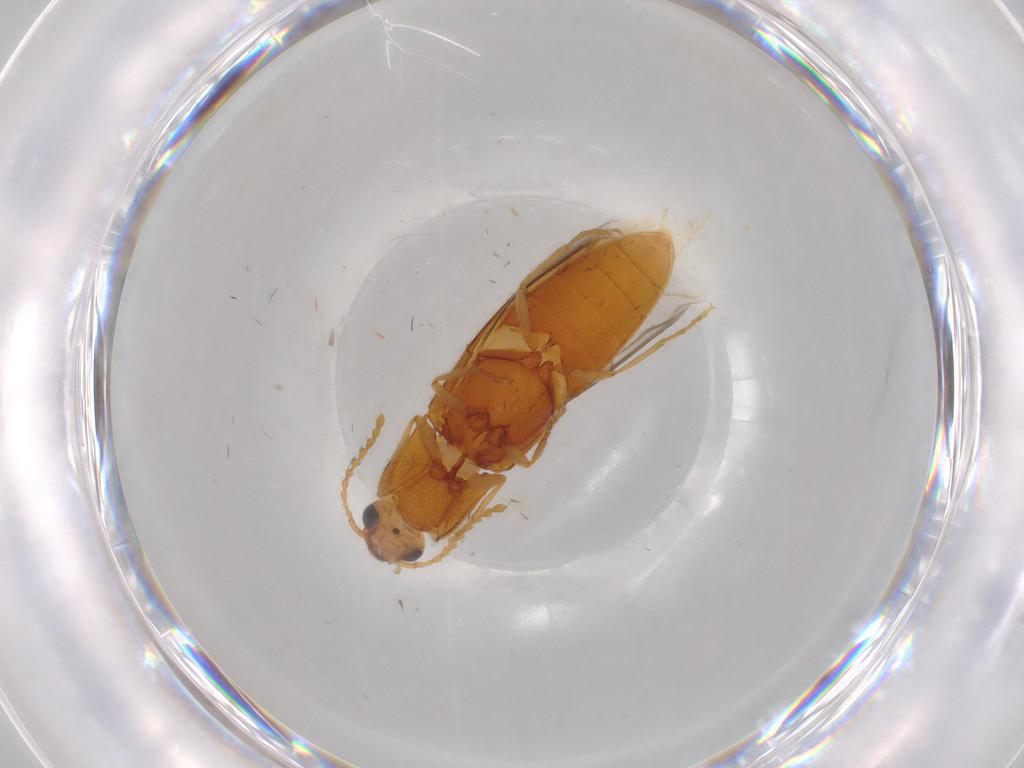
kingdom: Animalia
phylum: Arthropoda
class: Insecta
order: Coleoptera
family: Elateridae
